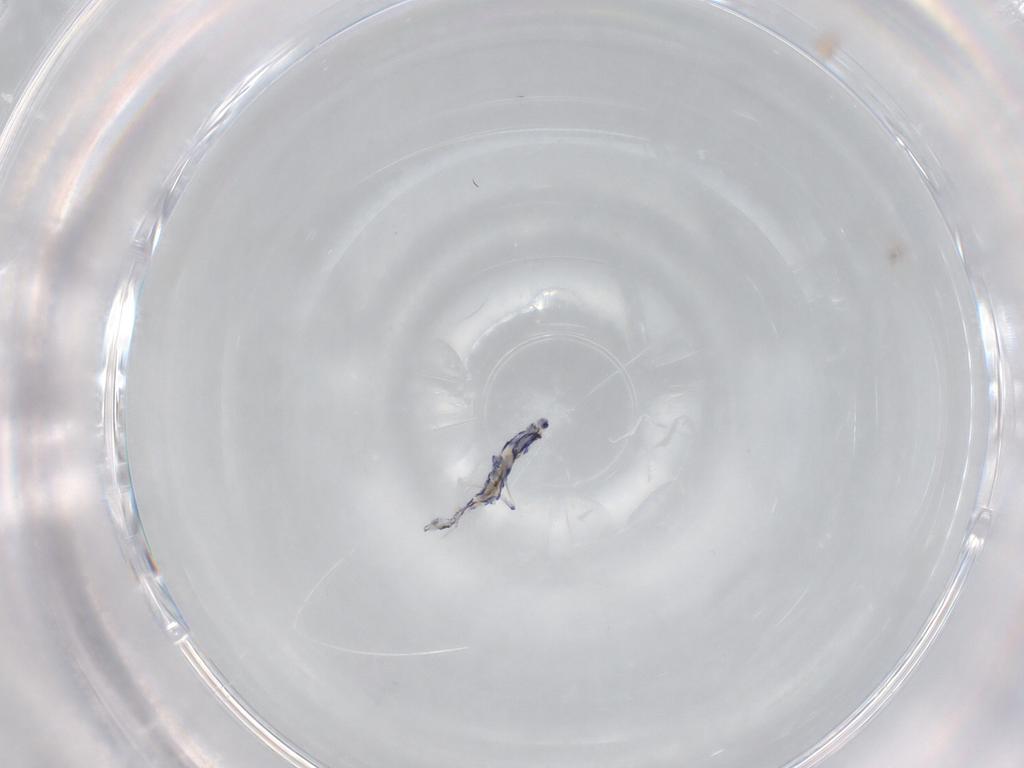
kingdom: Animalia
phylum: Arthropoda
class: Collembola
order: Entomobryomorpha
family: Entomobryidae
